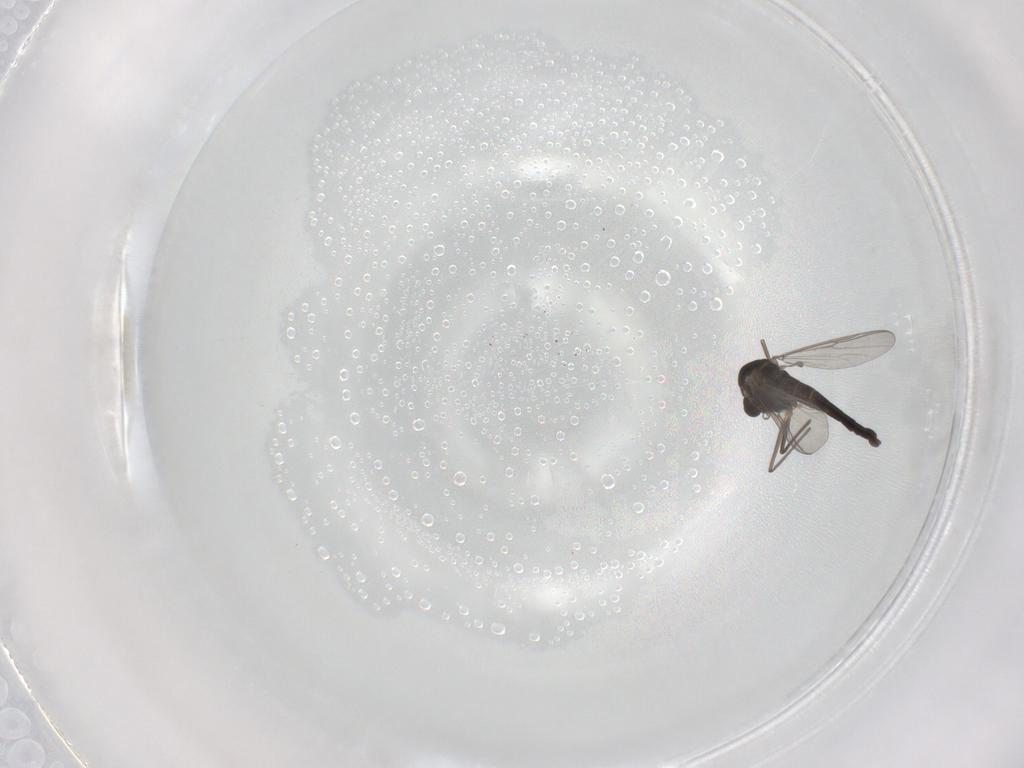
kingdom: Animalia
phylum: Arthropoda
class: Insecta
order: Diptera
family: Chironomidae
